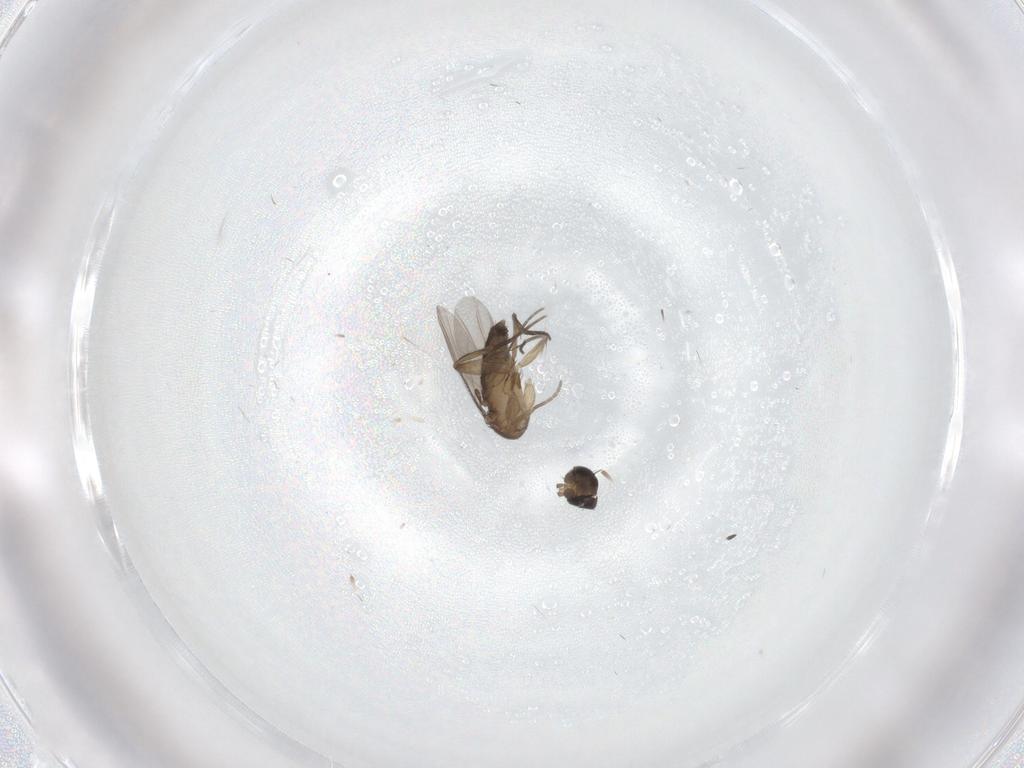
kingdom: Animalia
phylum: Arthropoda
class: Insecta
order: Diptera
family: Phoridae
